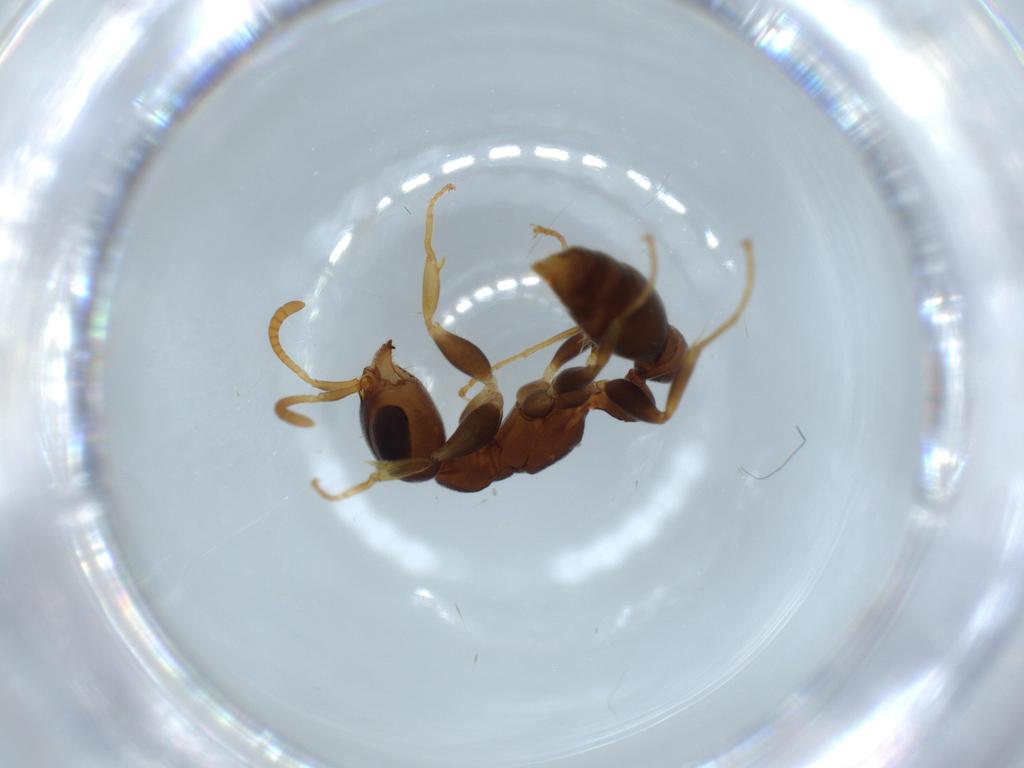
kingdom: Animalia
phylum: Arthropoda
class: Insecta
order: Hymenoptera
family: Formicidae
